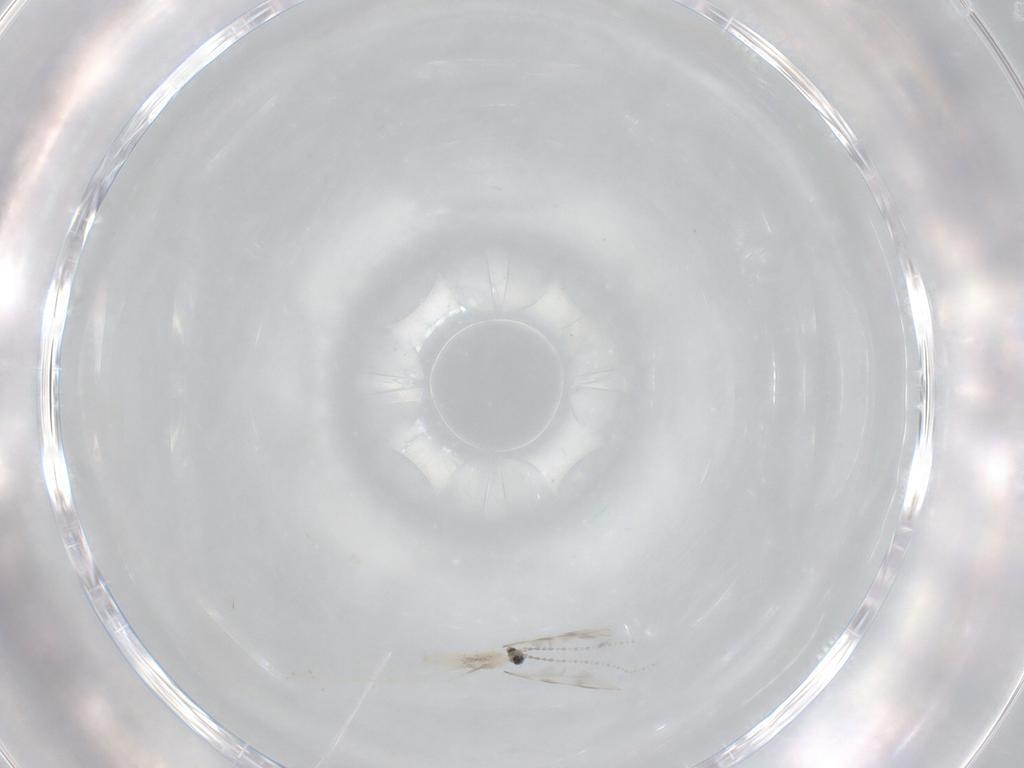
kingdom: Animalia
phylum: Arthropoda
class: Insecta
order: Diptera
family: Cecidomyiidae
